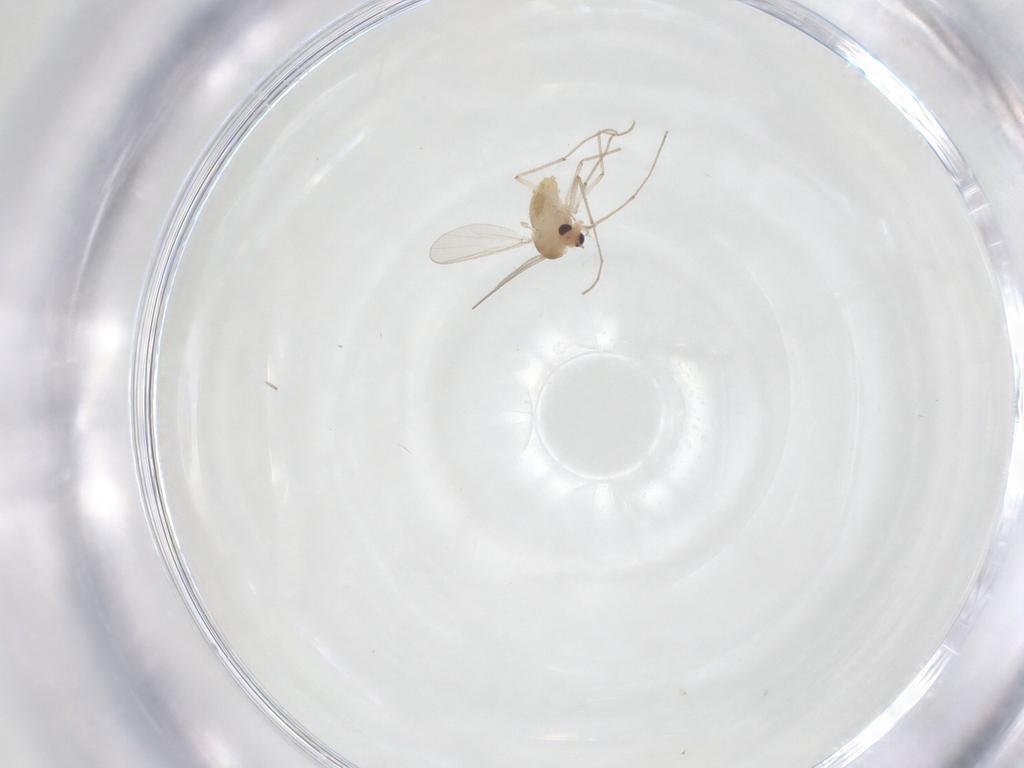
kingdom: Animalia
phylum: Arthropoda
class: Insecta
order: Diptera
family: Chironomidae
